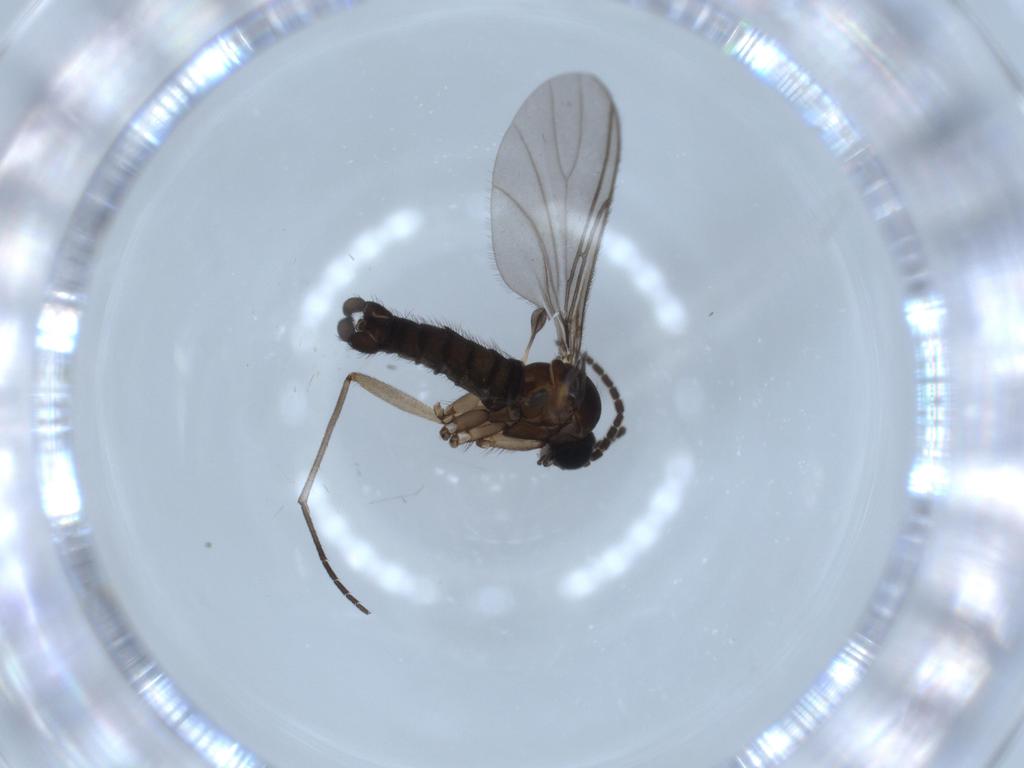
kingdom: Animalia
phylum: Arthropoda
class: Insecta
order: Diptera
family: Sciaridae
